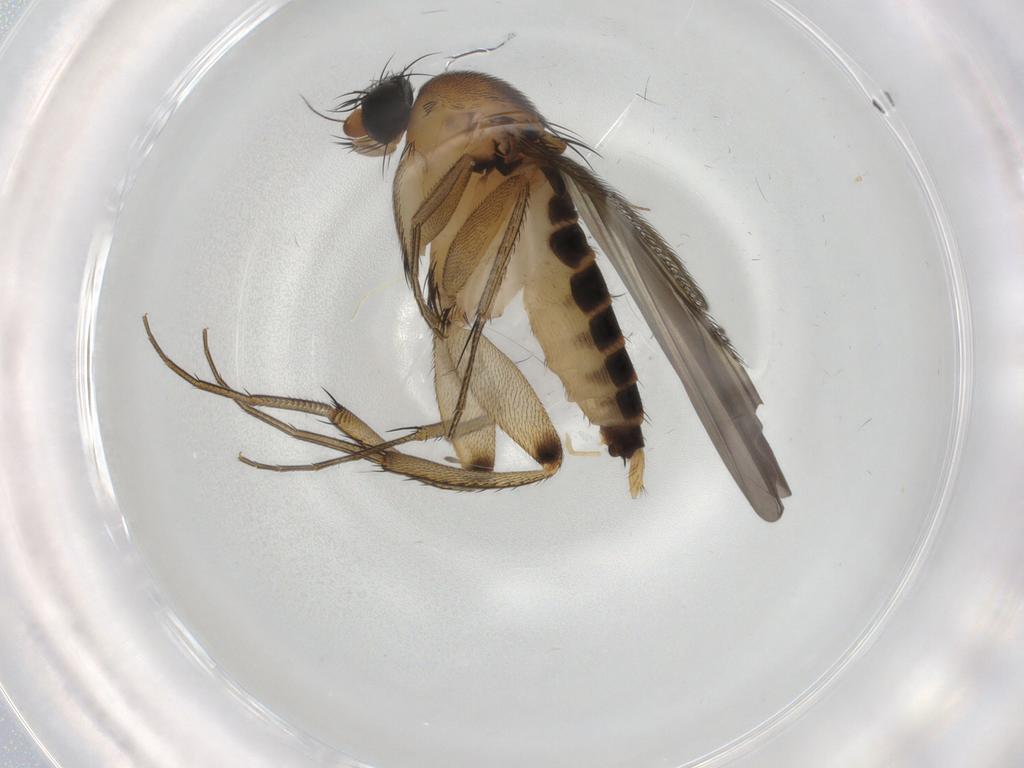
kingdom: Animalia
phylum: Arthropoda
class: Insecta
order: Diptera
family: Phoridae
